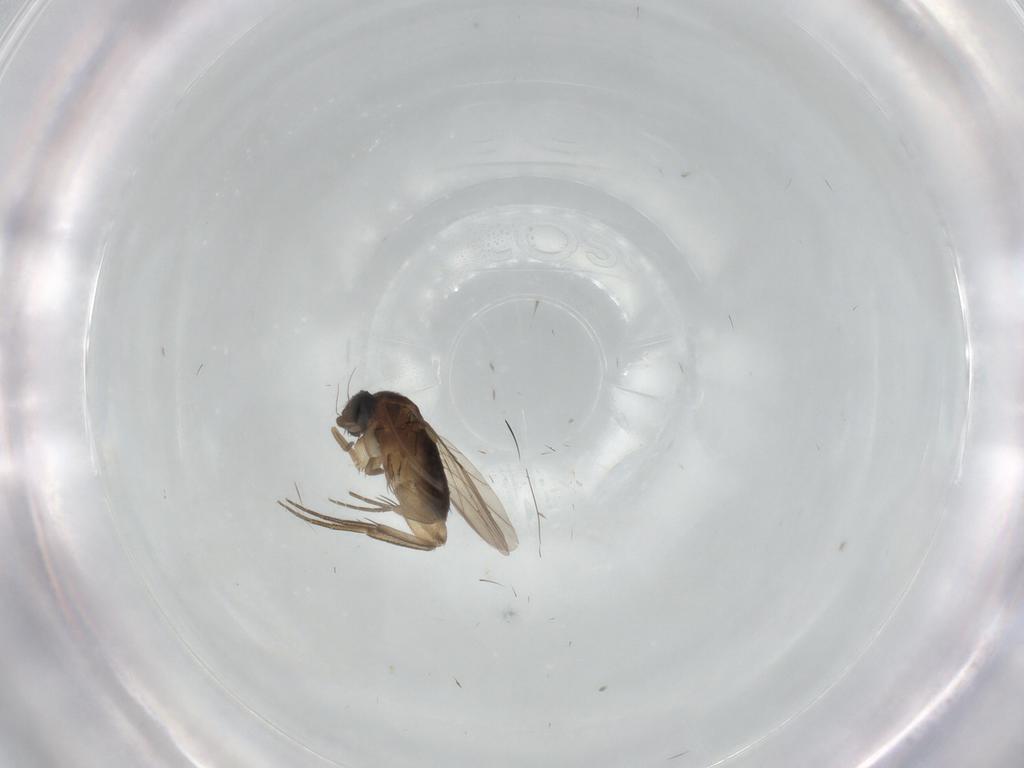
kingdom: Animalia
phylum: Arthropoda
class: Insecta
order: Diptera
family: Phoridae
